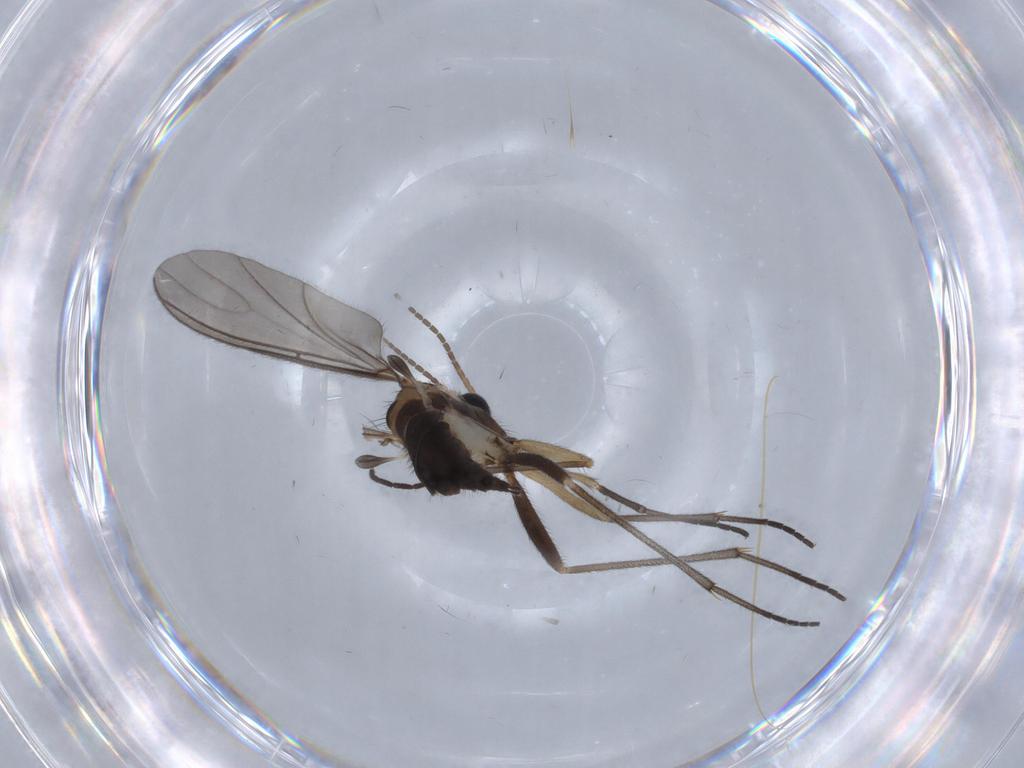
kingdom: Animalia
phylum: Arthropoda
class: Insecta
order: Diptera
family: Sciaridae
